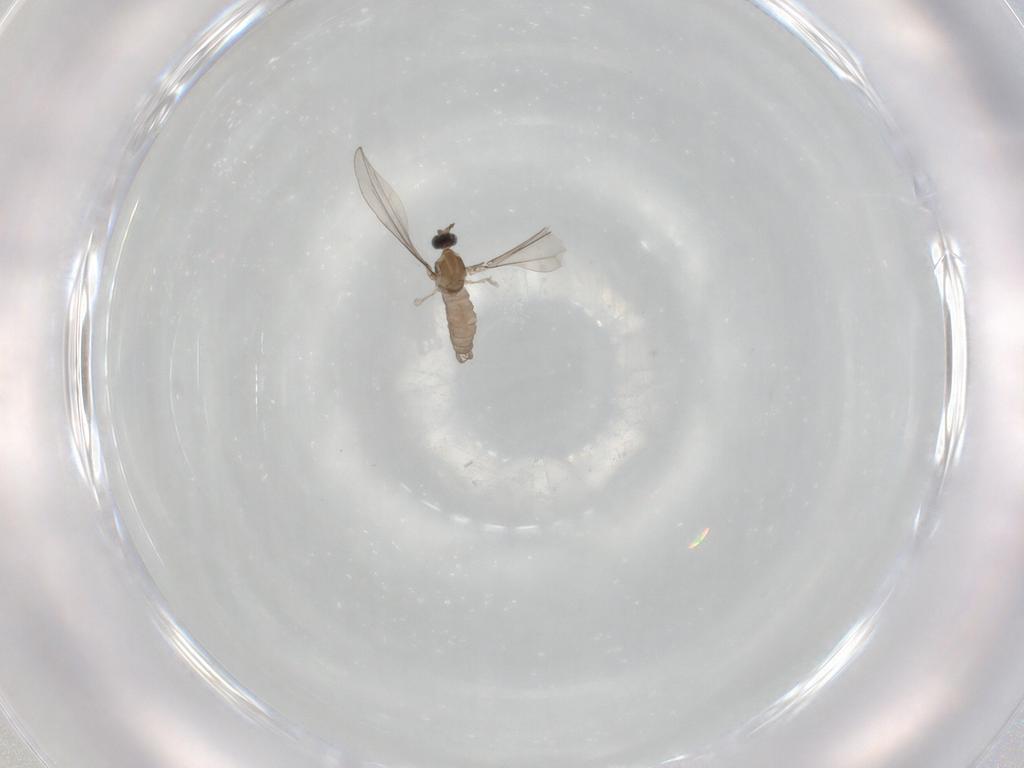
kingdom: Animalia
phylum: Arthropoda
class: Insecta
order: Diptera
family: Cecidomyiidae
